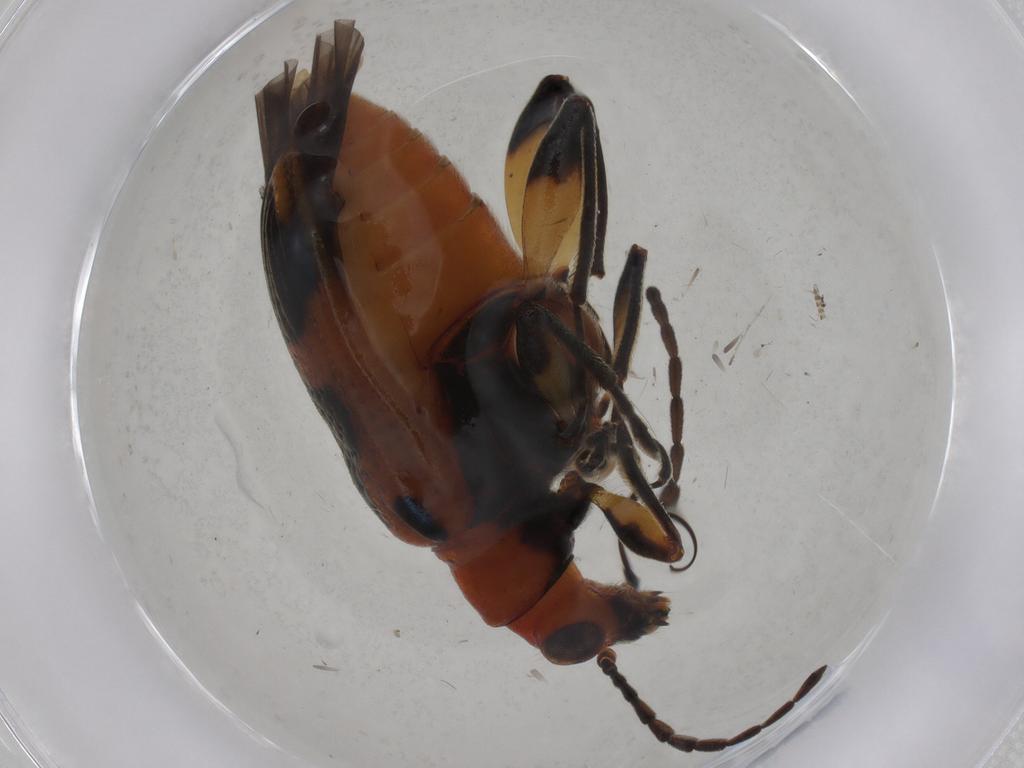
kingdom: Animalia
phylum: Arthropoda
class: Insecta
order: Coleoptera
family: Chrysomelidae
